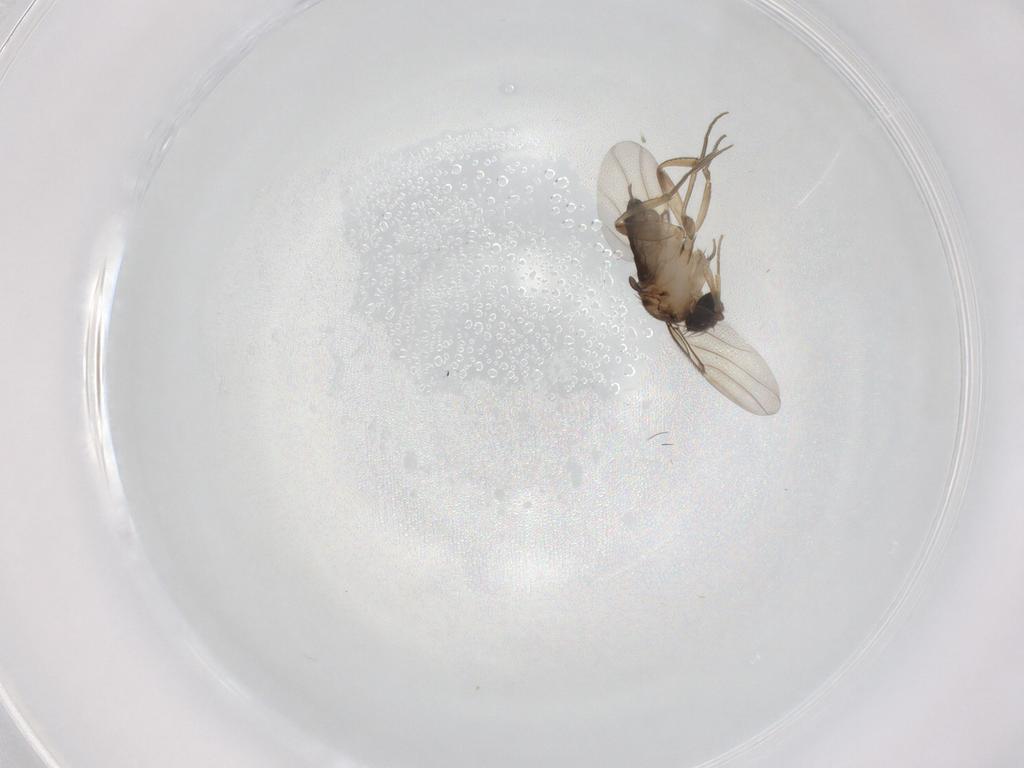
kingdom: Animalia
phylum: Arthropoda
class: Insecta
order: Diptera
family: Phoridae
